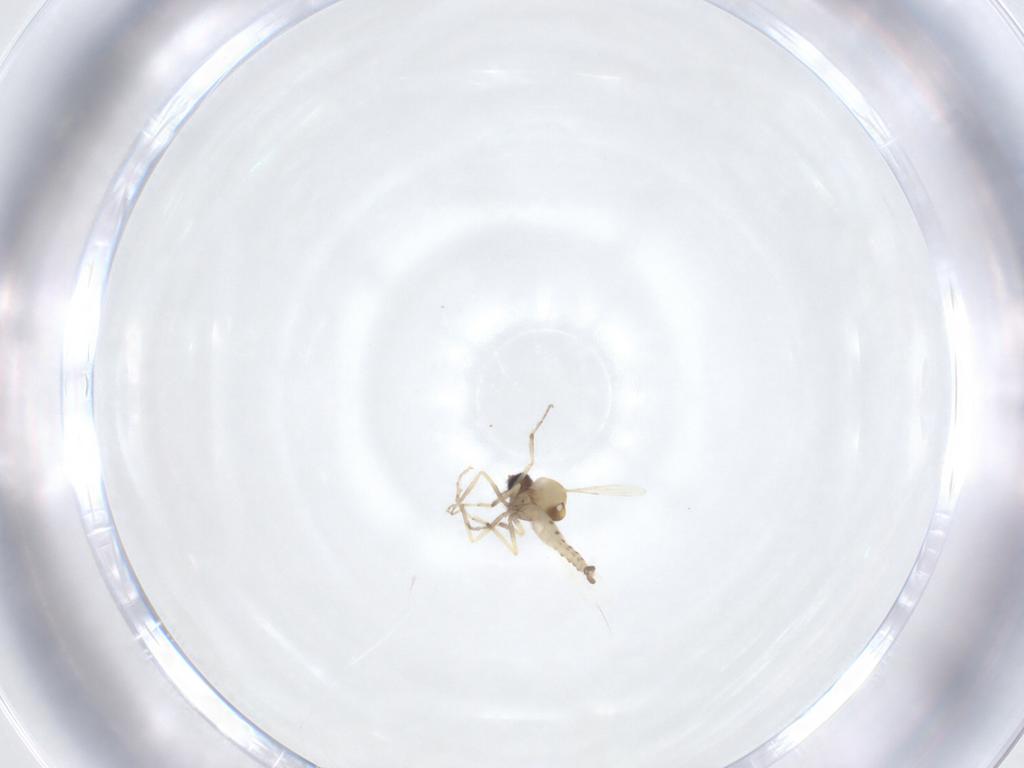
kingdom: Animalia
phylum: Arthropoda
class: Insecta
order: Diptera
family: Ceratopogonidae
